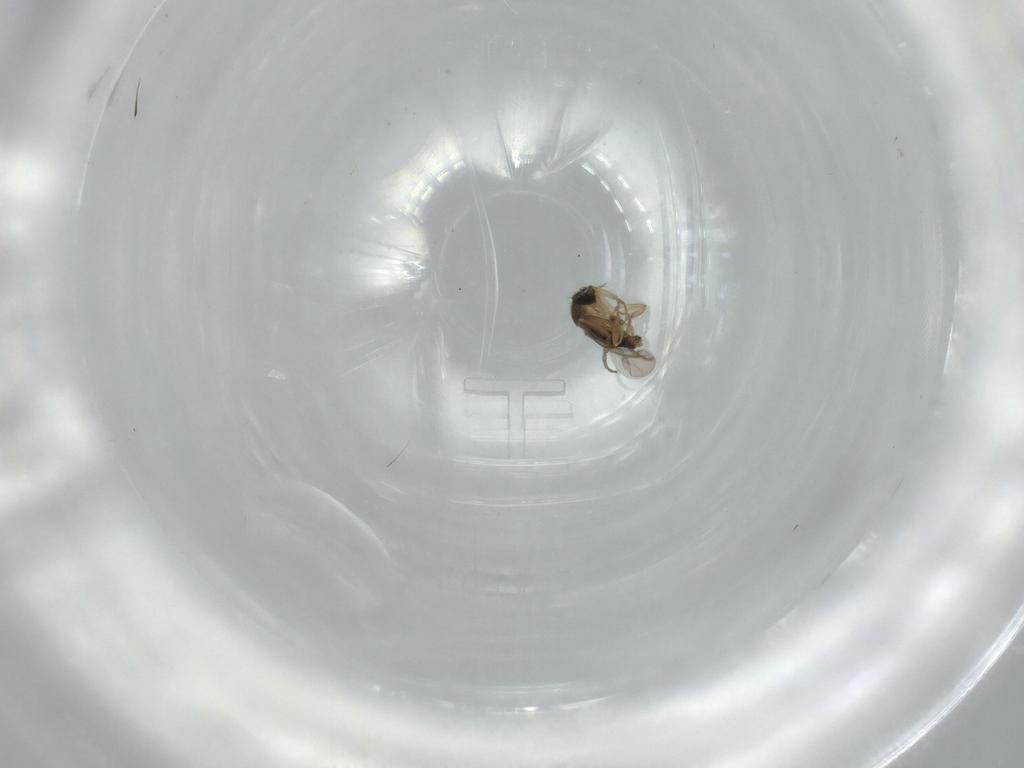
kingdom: Animalia
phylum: Arthropoda
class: Insecta
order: Diptera
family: Phoridae
